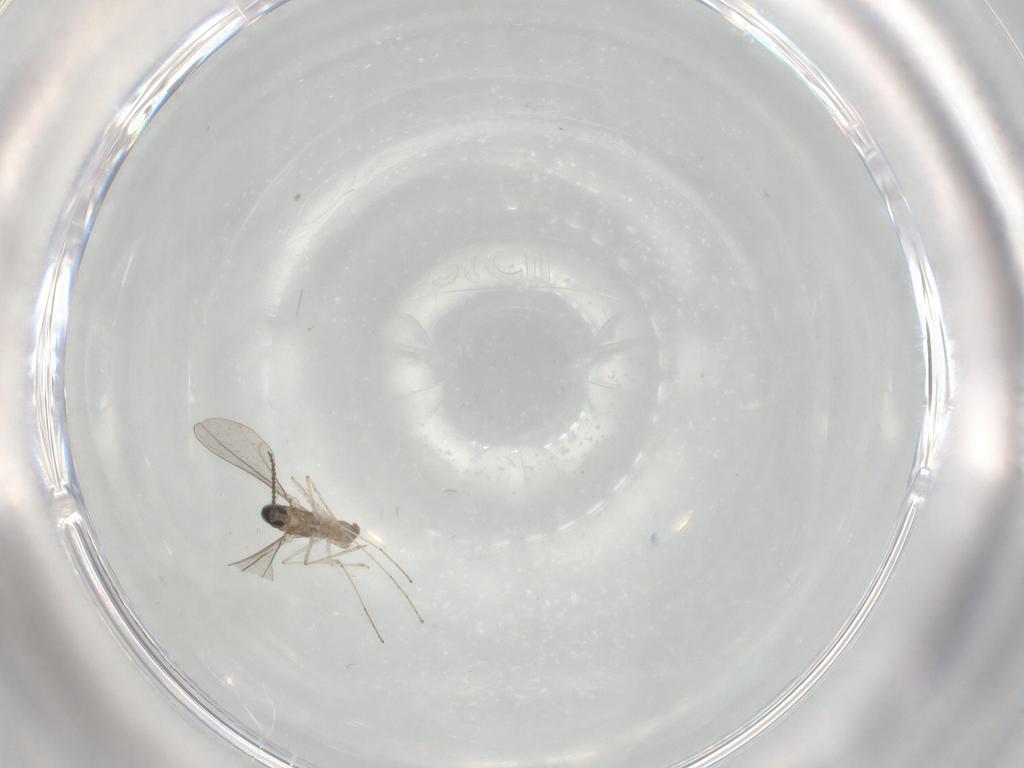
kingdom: Animalia
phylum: Arthropoda
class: Insecta
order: Diptera
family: Cecidomyiidae
